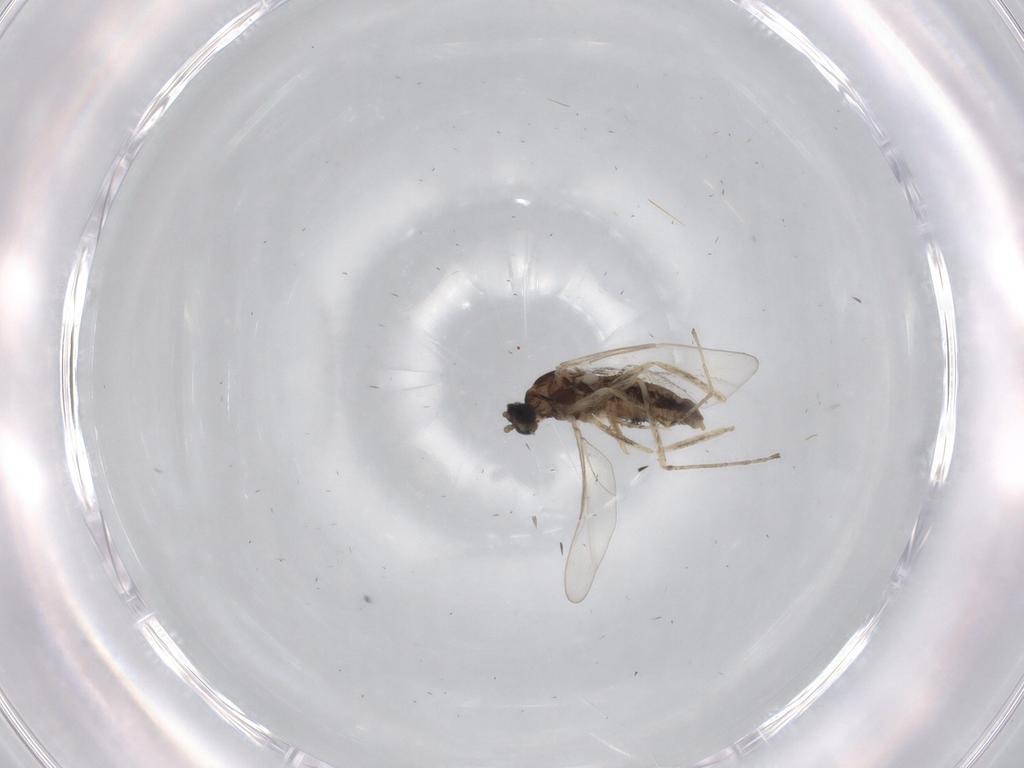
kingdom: Animalia
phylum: Arthropoda
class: Insecta
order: Diptera
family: Cecidomyiidae
